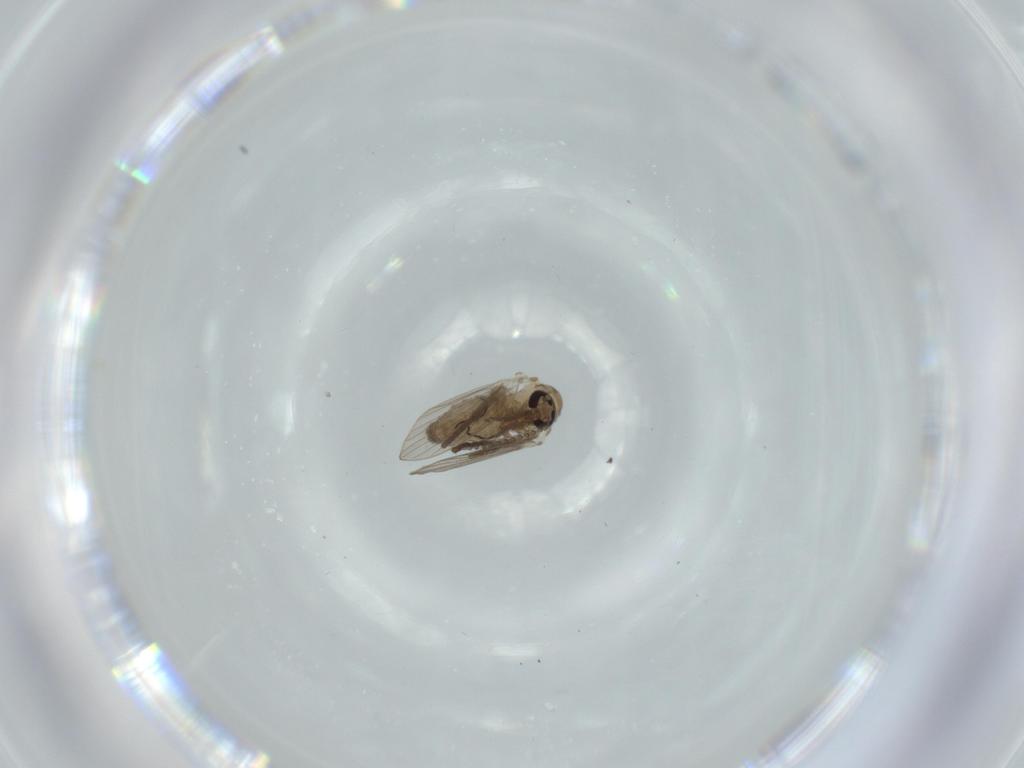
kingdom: Animalia
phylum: Arthropoda
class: Insecta
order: Diptera
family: Psychodidae
